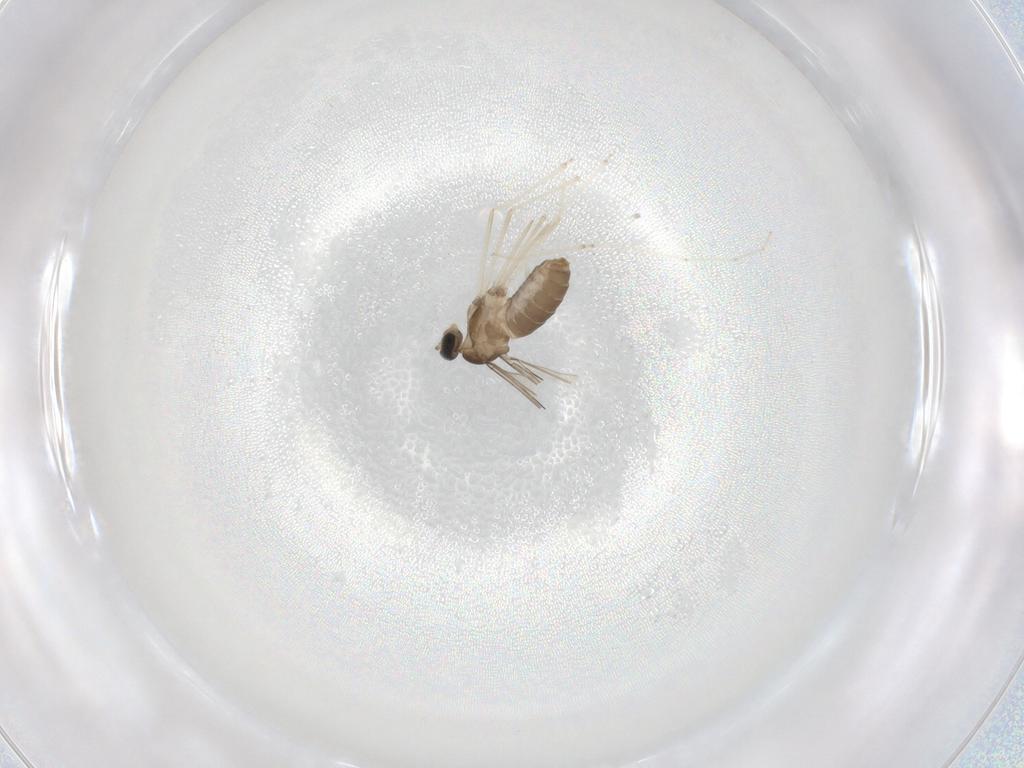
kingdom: Animalia
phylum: Arthropoda
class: Insecta
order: Diptera
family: Cecidomyiidae
